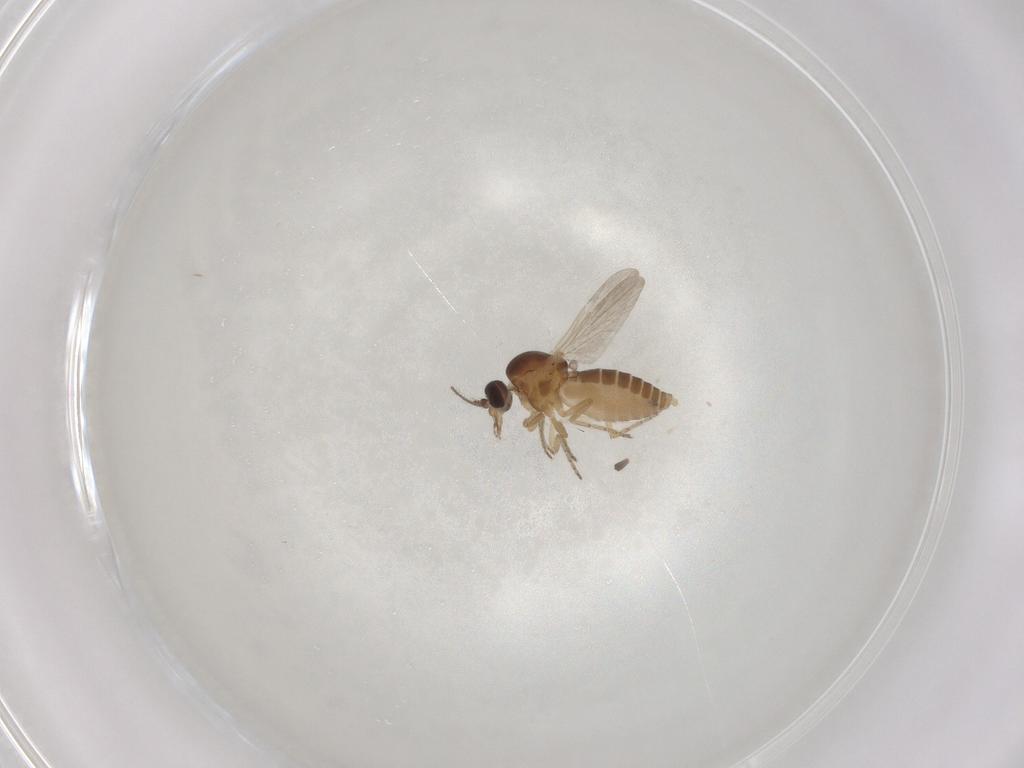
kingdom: Animalia
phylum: Arthropoda
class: Insecta
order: Diptera
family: Ceratopogonidae
